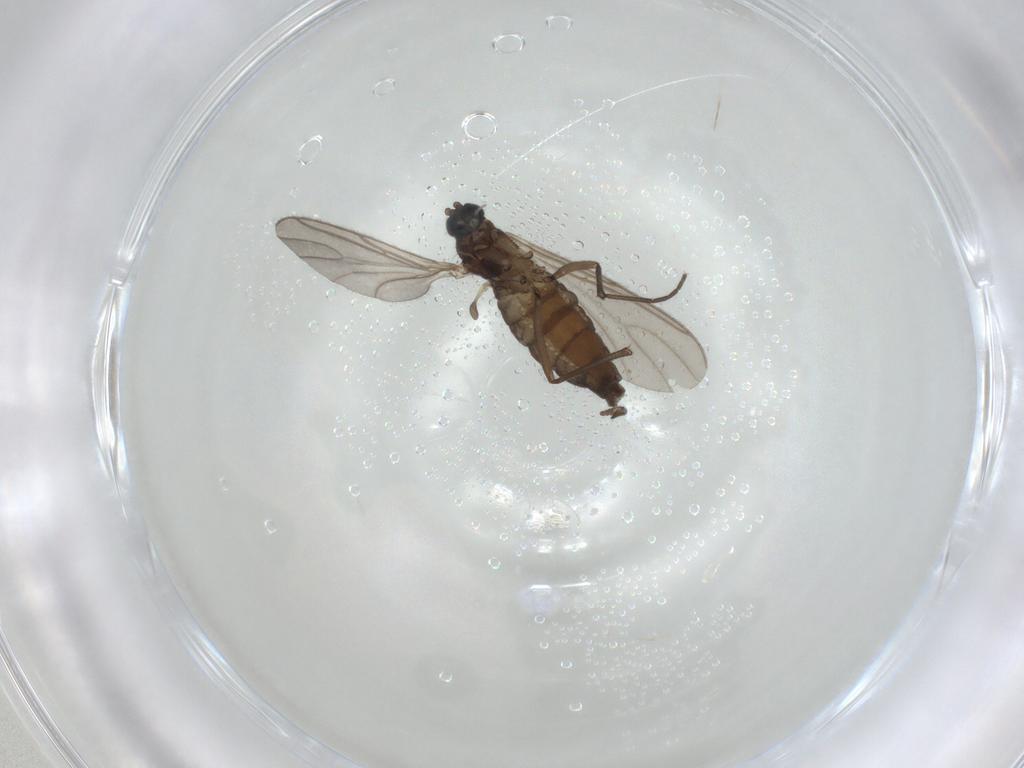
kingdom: Animalia
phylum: Arthropoda
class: Insecta
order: Diptera
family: Sciaridae
